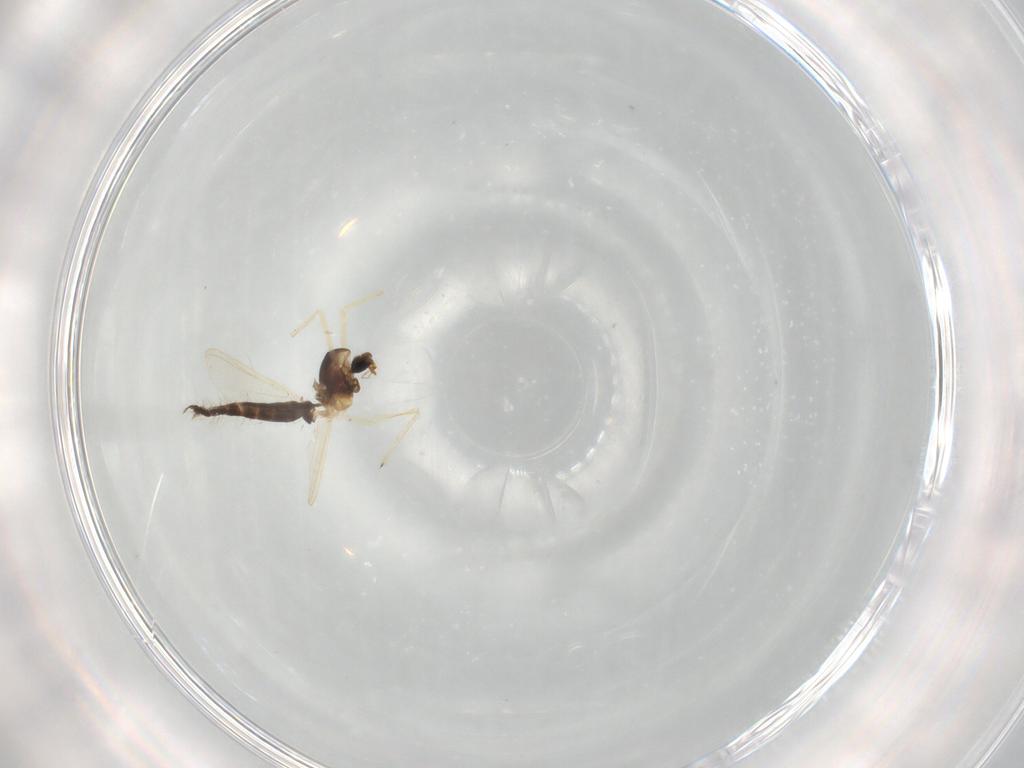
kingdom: Animalia
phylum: Arthropoda
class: Insecta
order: Diptera
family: Chironomidae
